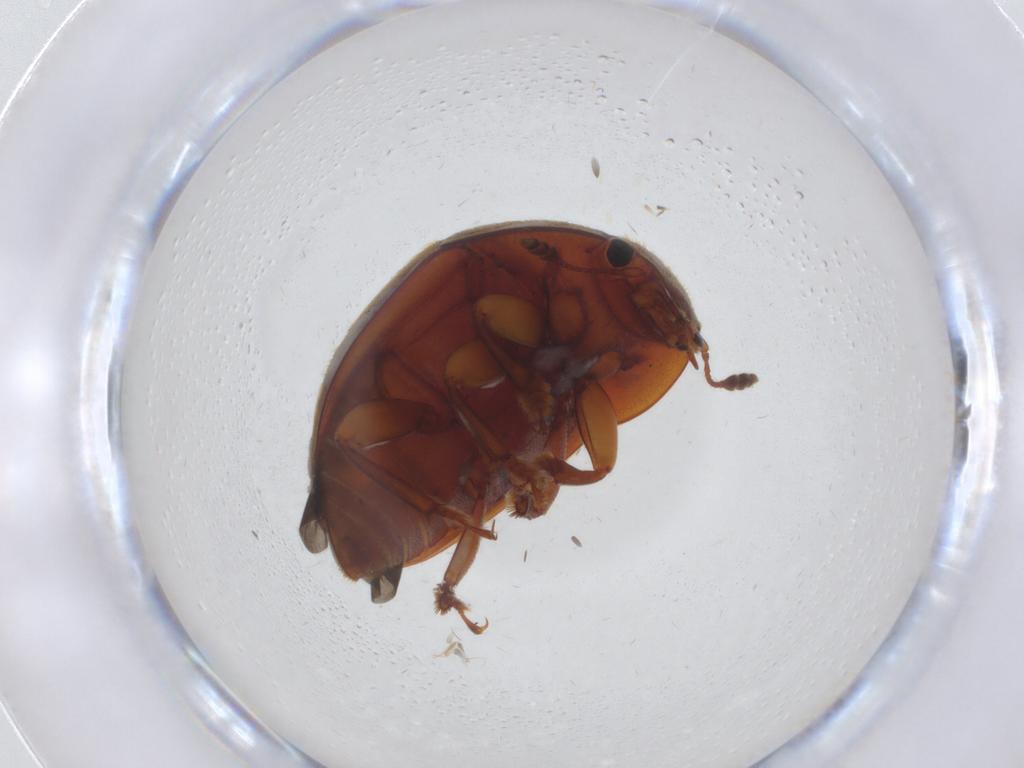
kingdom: Animalia
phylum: Arthropoda
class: Insecta
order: Coleoptera
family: Nitidulidae
